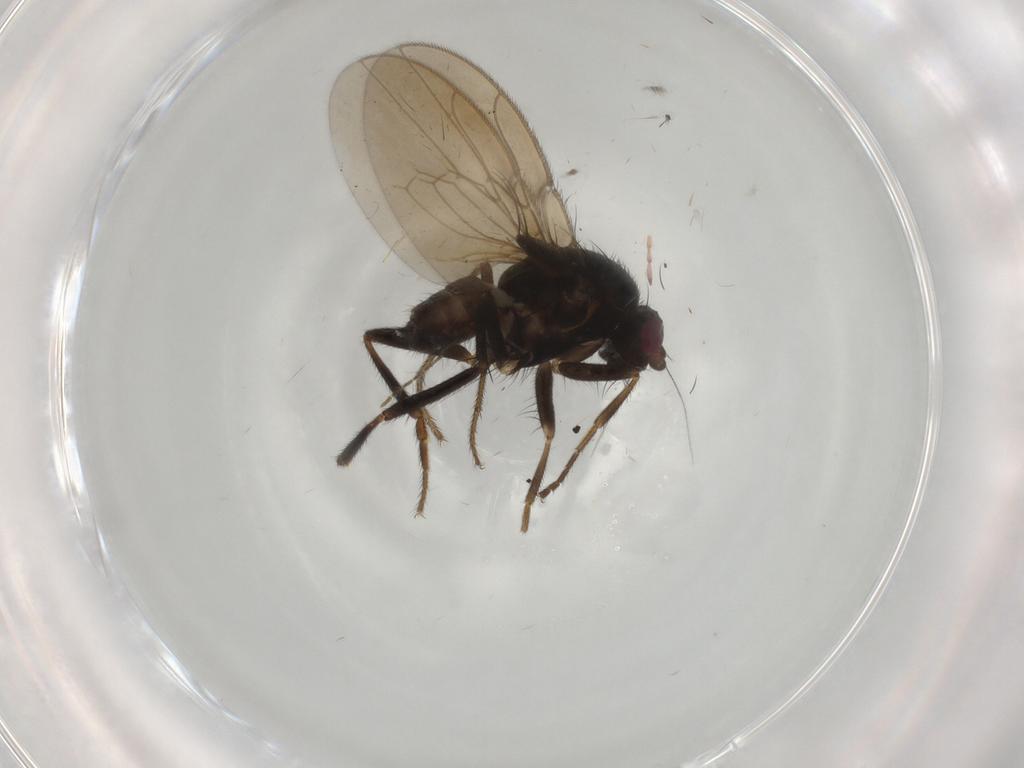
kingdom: Animalia
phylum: Arthropoda
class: Insecta
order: Diptera
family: Sphaeroceridae
